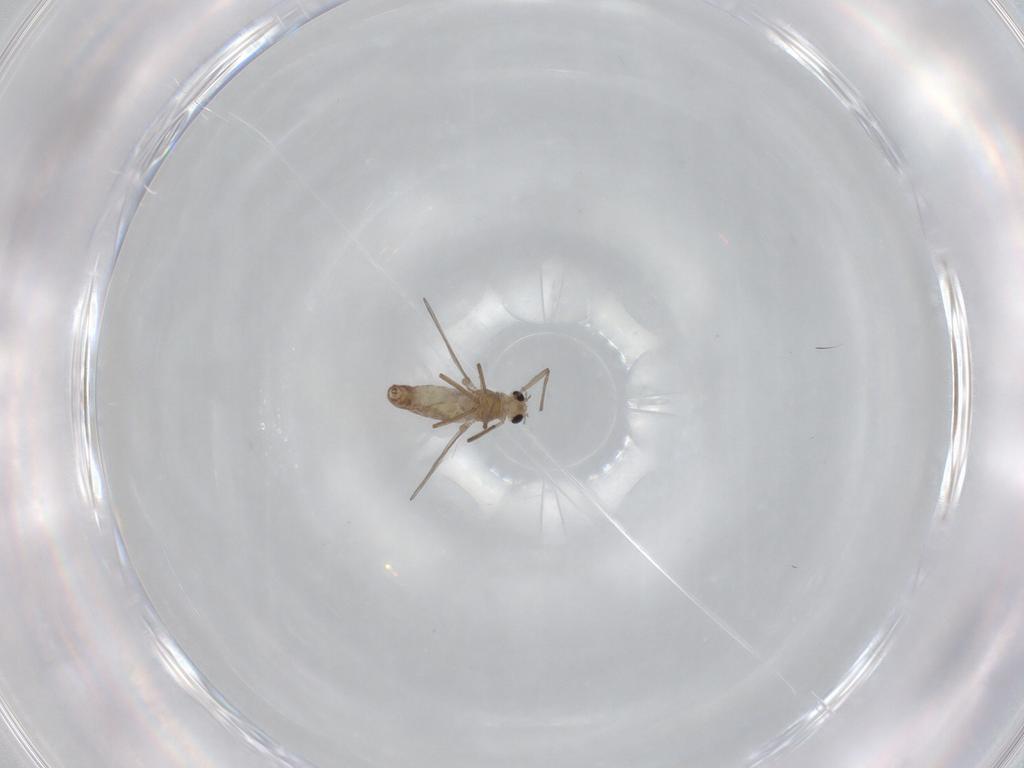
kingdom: Animalia
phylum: Arthropoda
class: Insecta
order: Diptera
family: Chironomidae
